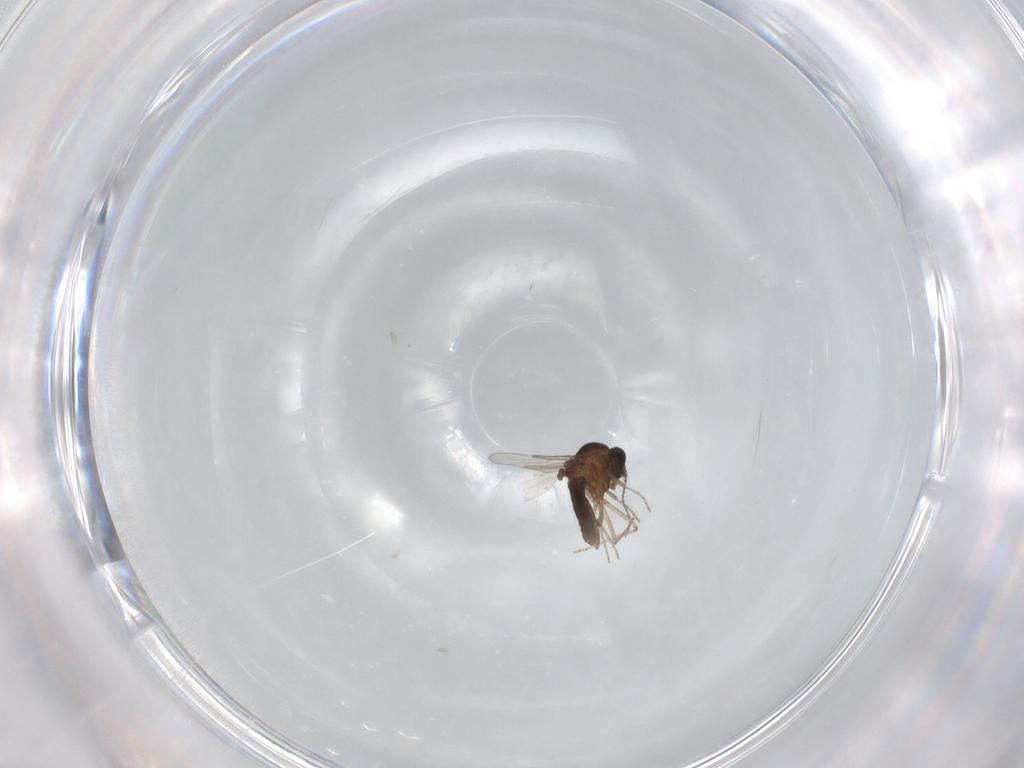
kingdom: Animalia
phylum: Arthropoda
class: Insecta
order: Diptera
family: Ceratopogonidae
